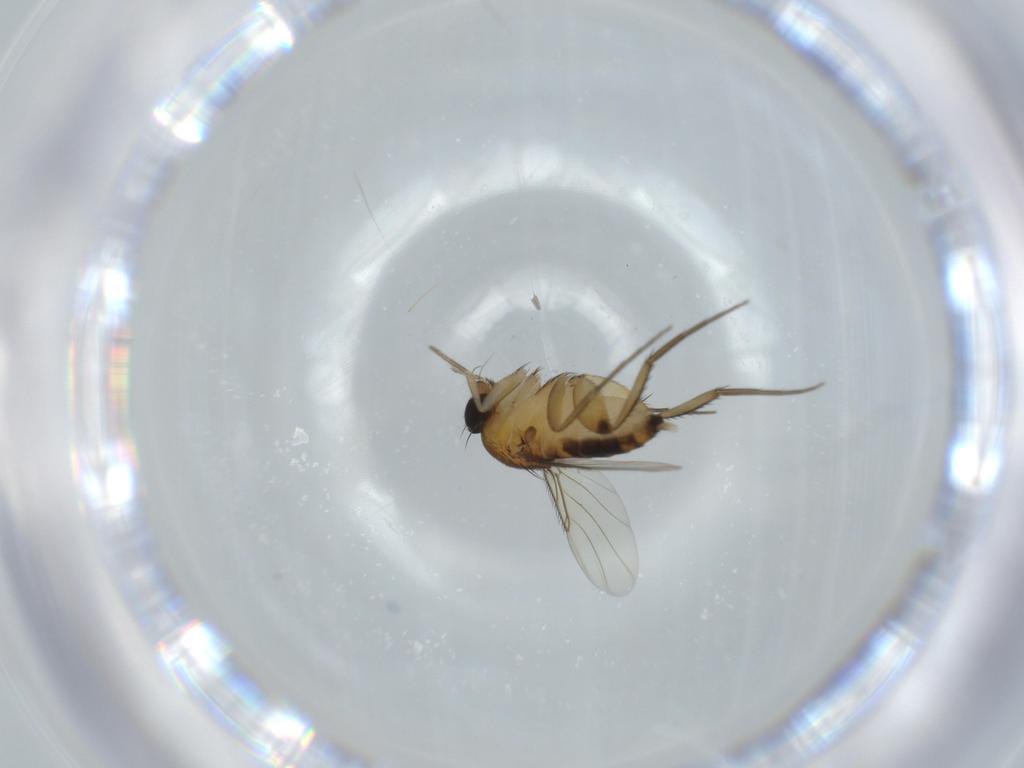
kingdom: Animalia
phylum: Arthropoda
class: Insecta
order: Diptera
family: Phoridae
